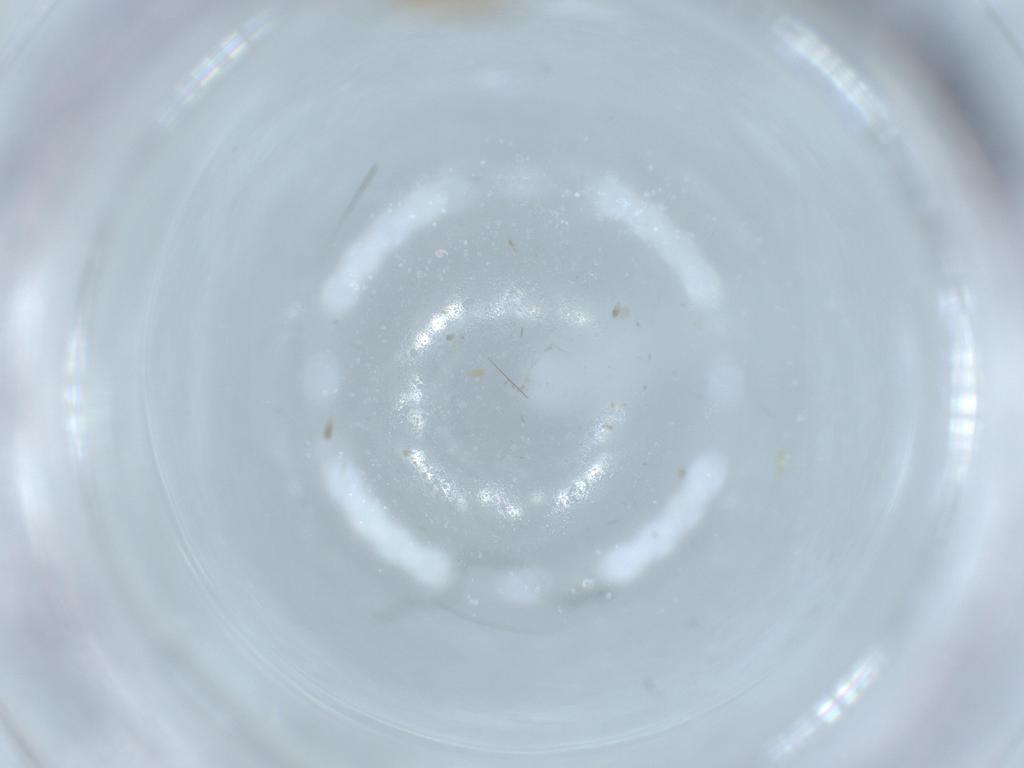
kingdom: Animalia
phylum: Arthropoda
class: Insecta
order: Diptera
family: Chironomidae
